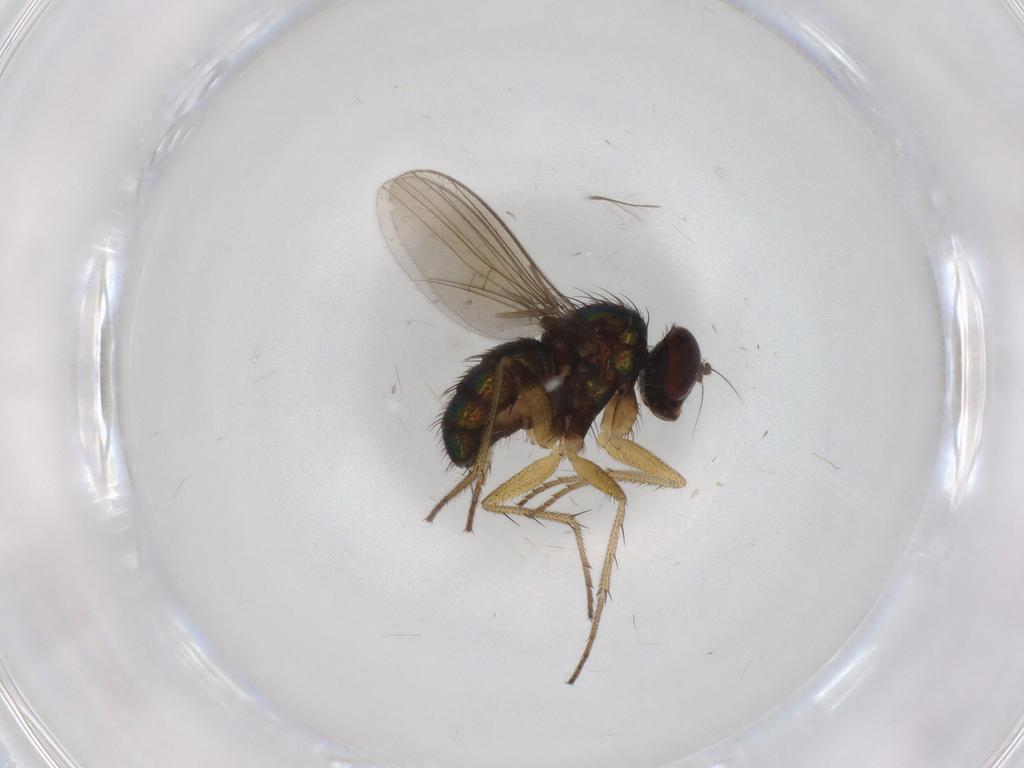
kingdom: Animalia
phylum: Arthropoda
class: Insecta
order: Diptera
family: Dolichopodidae
